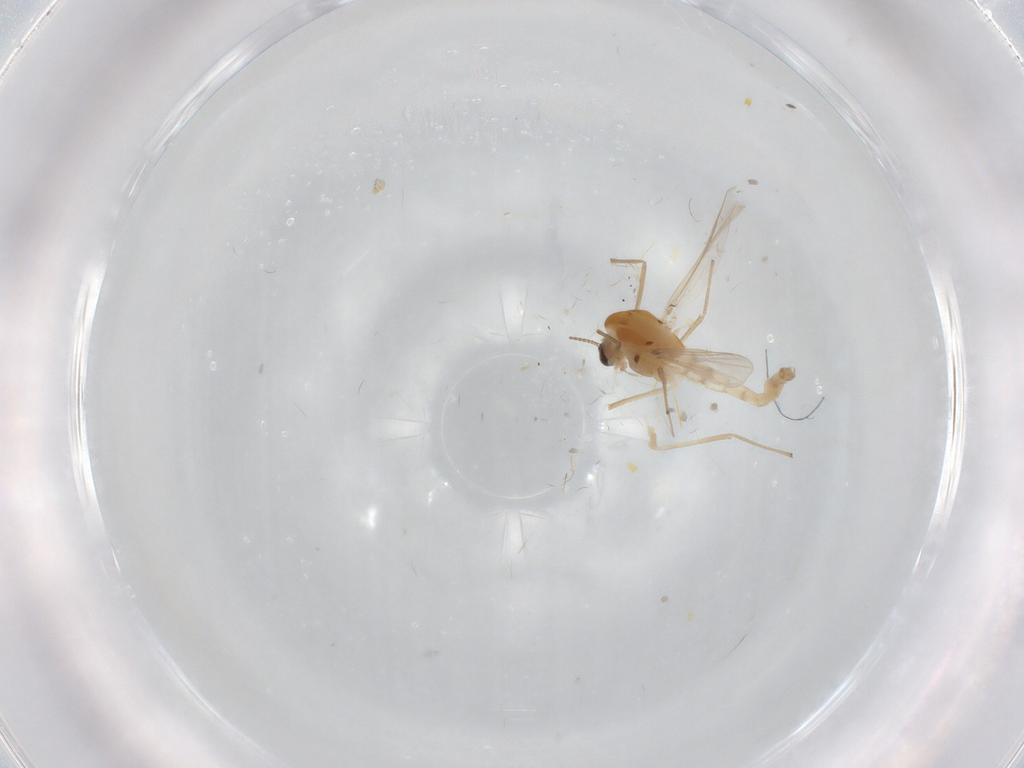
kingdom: Animalia
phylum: Arthropoda
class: Insecta
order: Diptera
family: Chironomidae
